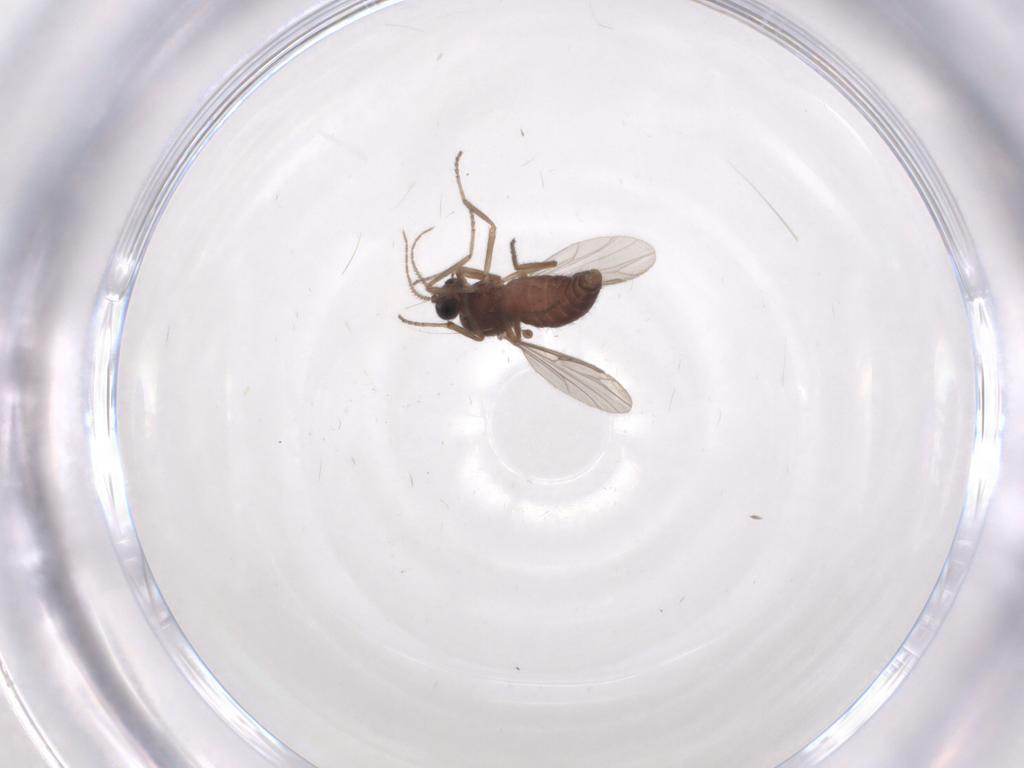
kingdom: Animalia
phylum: Arthropoda
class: Insecta
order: Diptera
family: Ceratopogonidae
